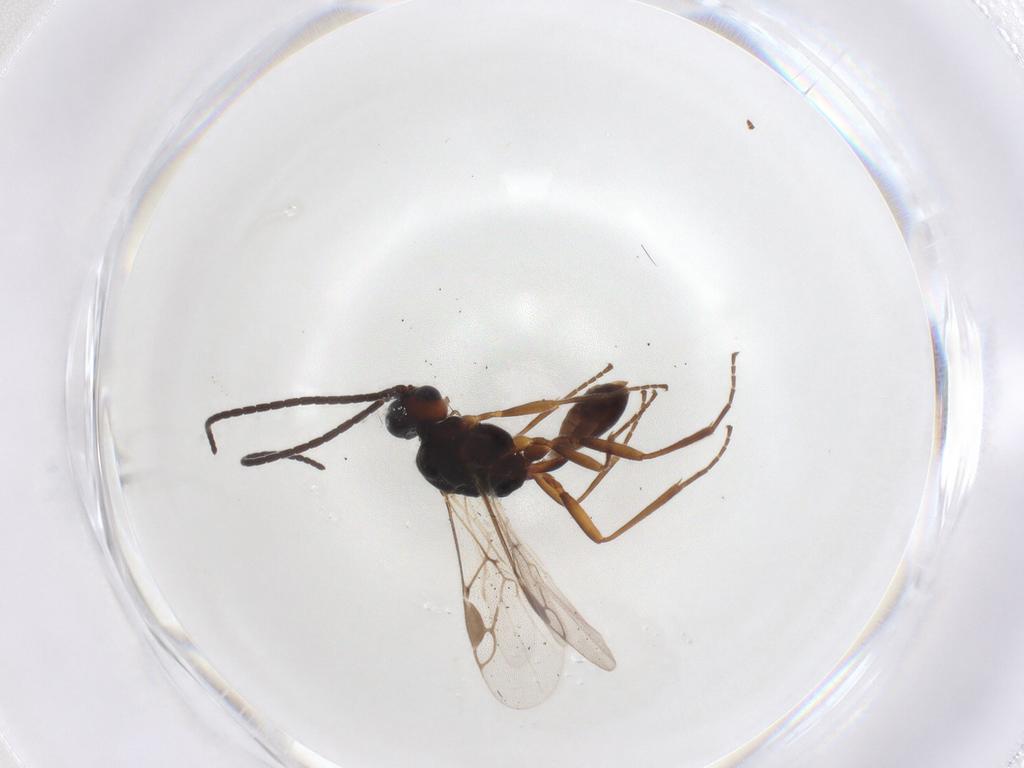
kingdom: Animalia
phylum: Arthropoda
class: Insecta
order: Hymenoptera
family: Braconidae
